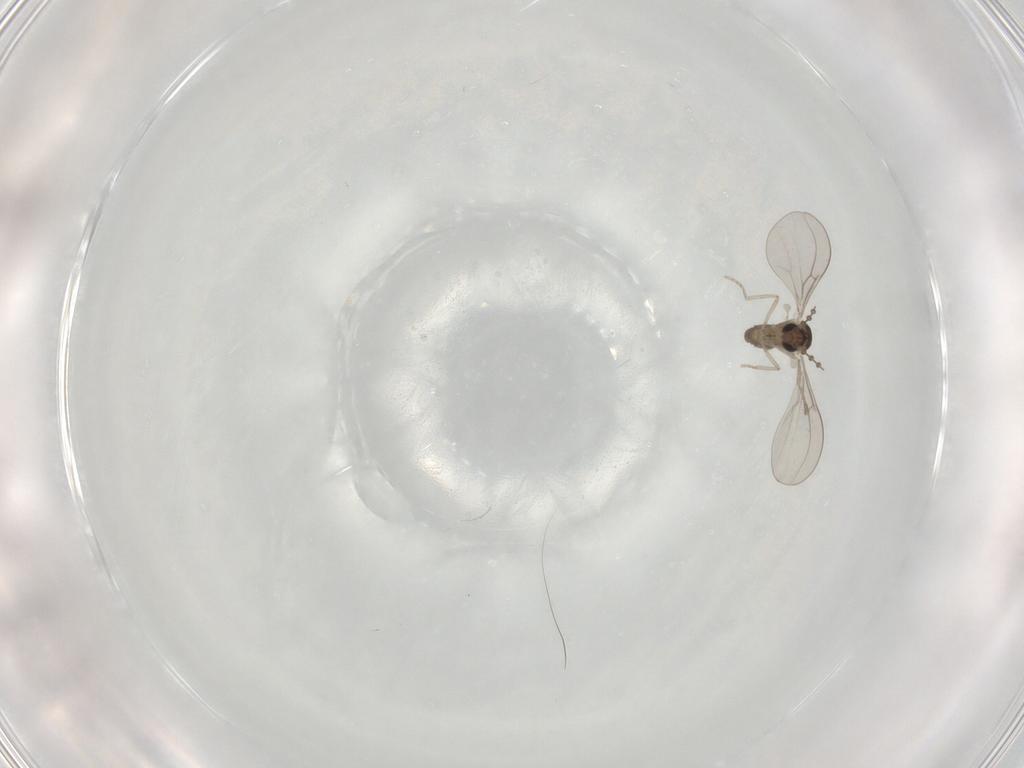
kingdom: Animalia
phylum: Arthropoda
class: Insecta
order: Diptera
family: Cecidomyiidae
